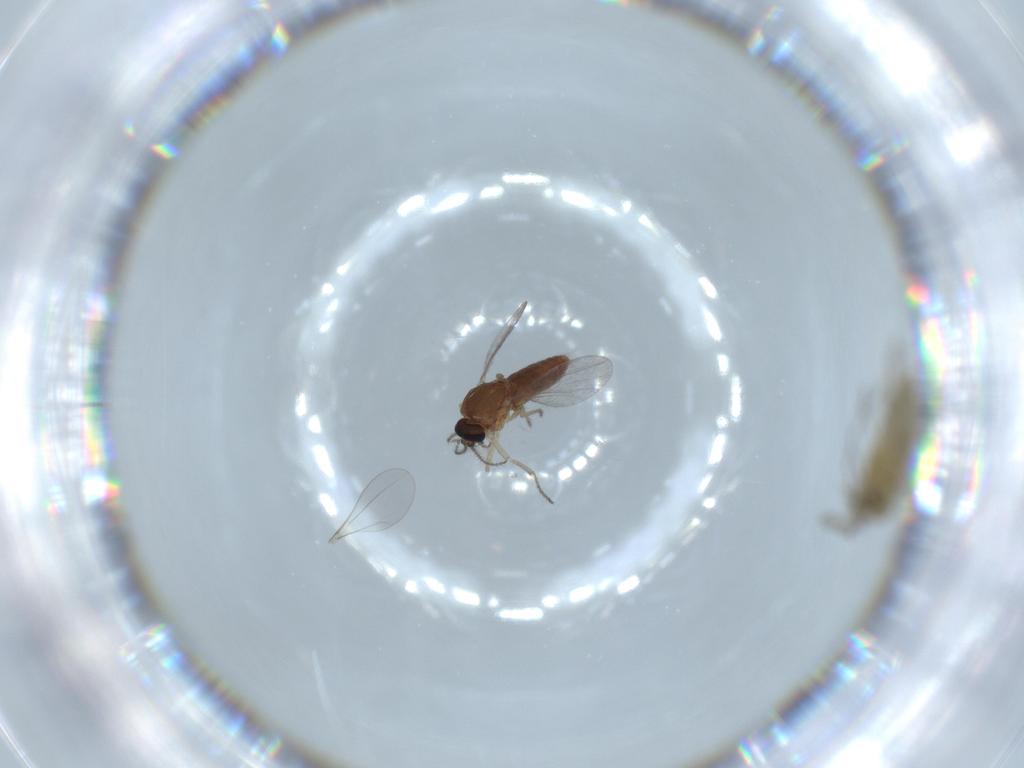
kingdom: Animalia
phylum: Arthropoda
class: Insecta
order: Diptera
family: Chironomidae
